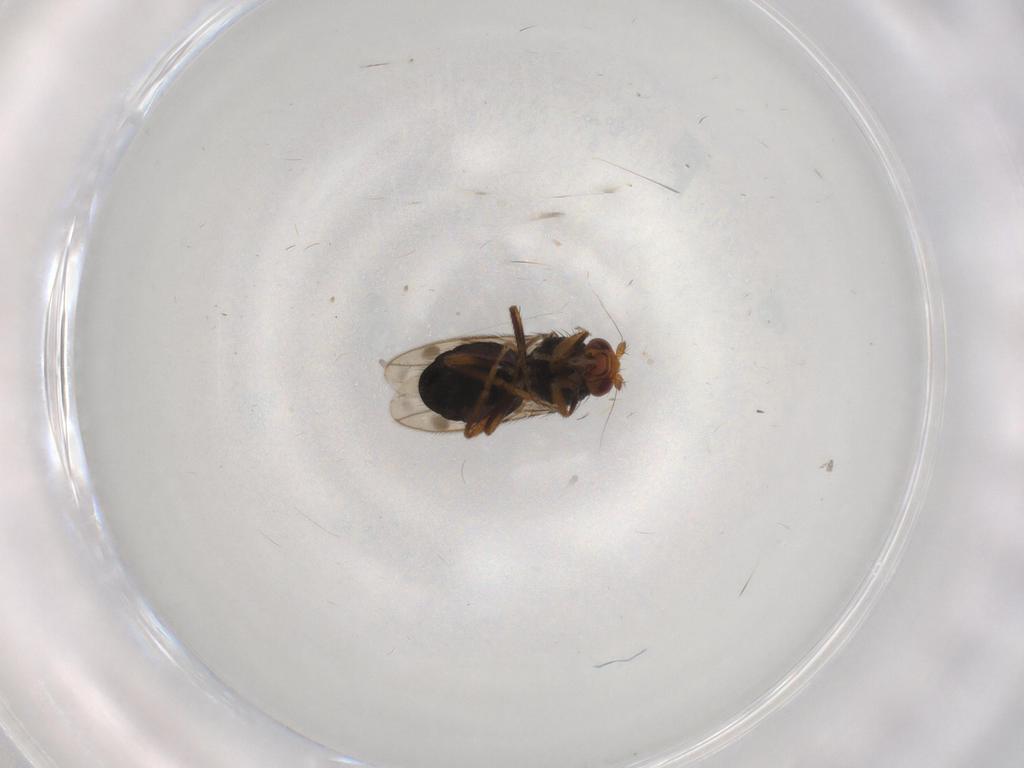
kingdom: Animalia
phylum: Arthropoda
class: Insecta
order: Diptera
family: Sphaeroceridae
